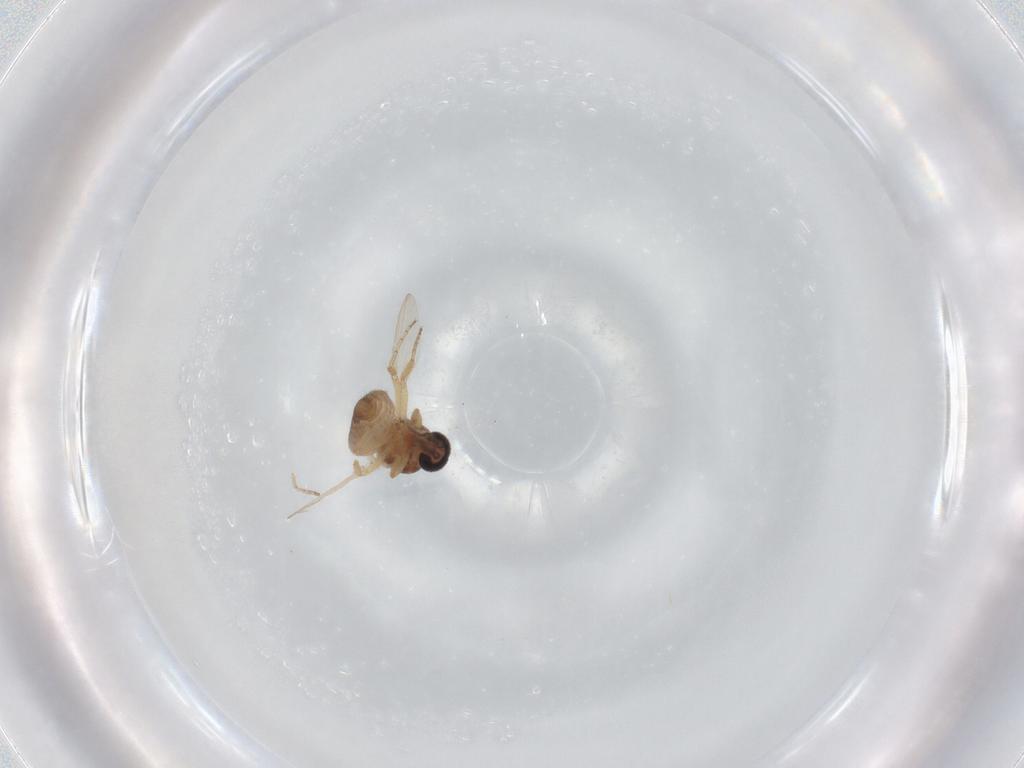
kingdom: Animalia
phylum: Arthropoda
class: Insecta
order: Diptera
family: Ceratopogonidae
